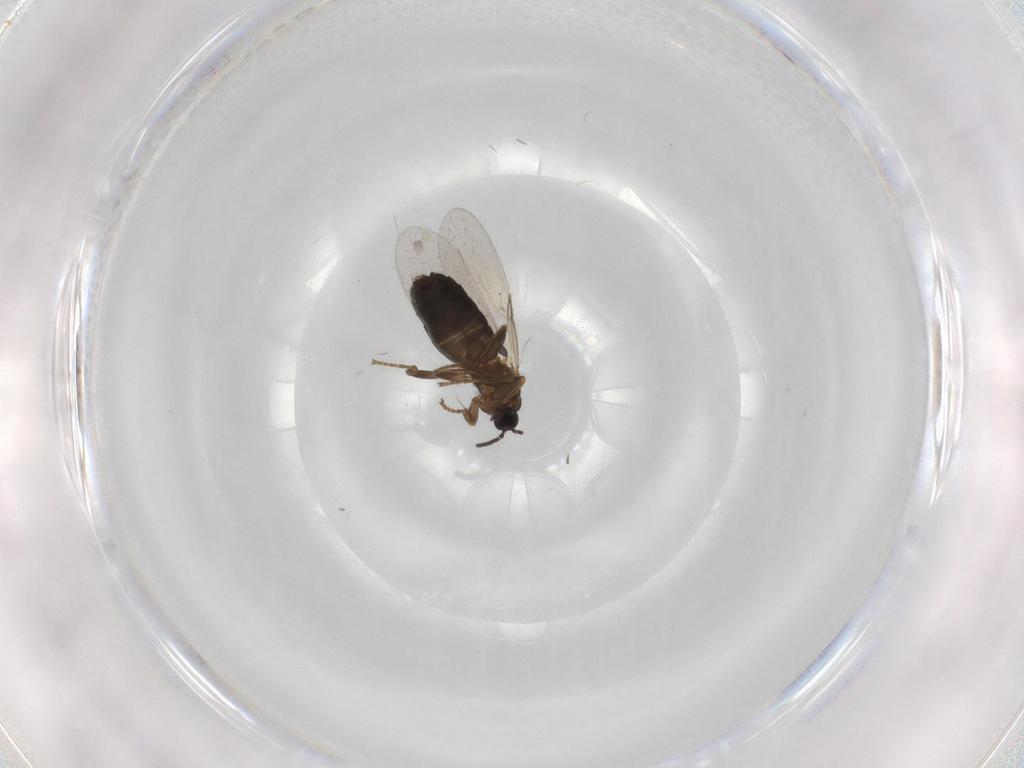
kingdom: Animalia
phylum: Arthropoda
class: Insecta
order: Diptera
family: Scatopsidae
